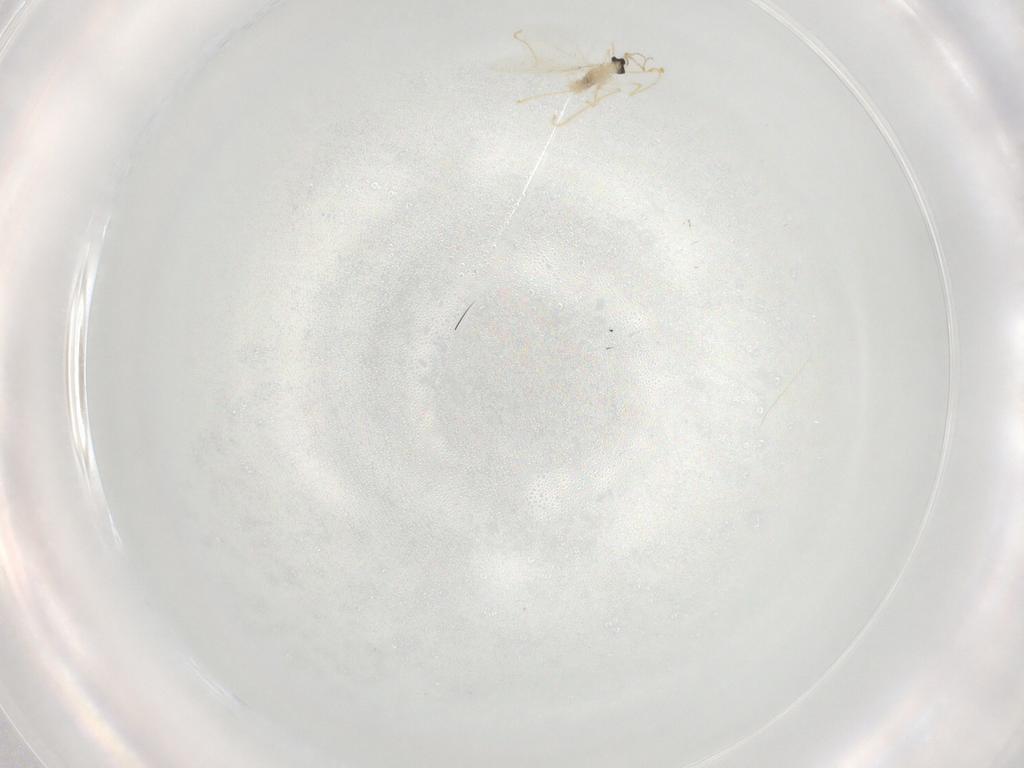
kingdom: Animalia
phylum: Arthropoda
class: Insecta
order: Diptera
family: Cecidomyiidae
